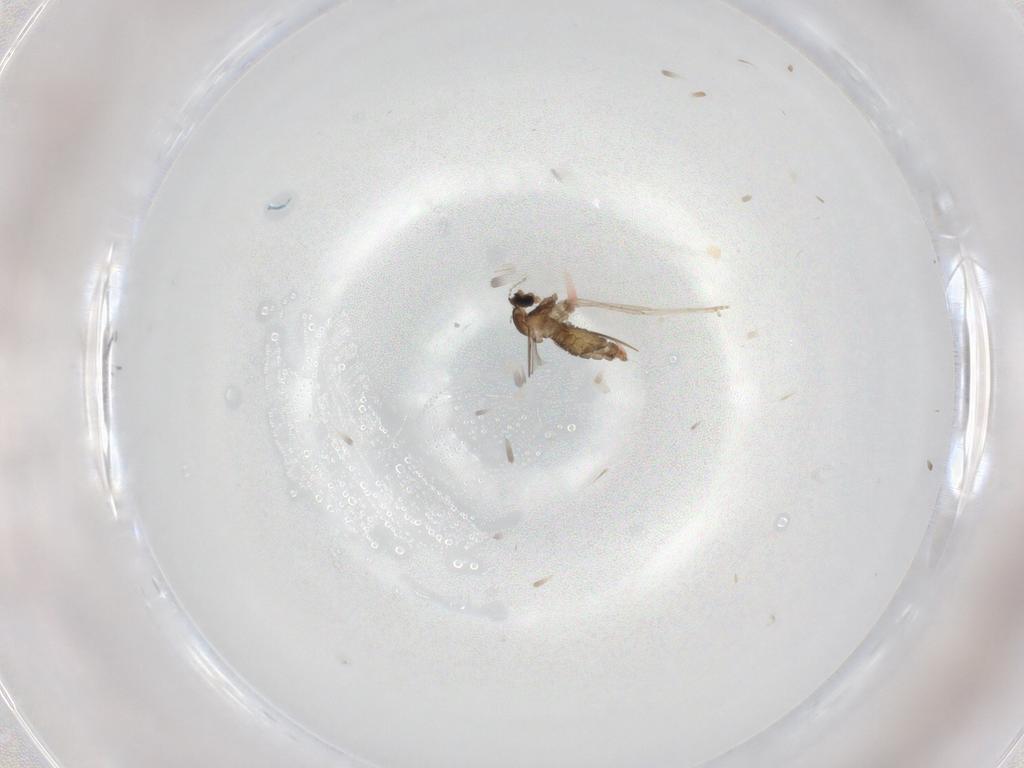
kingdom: Animalia
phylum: Arthropoda
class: Insecta
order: Diptera
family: Cecidomyiidae
